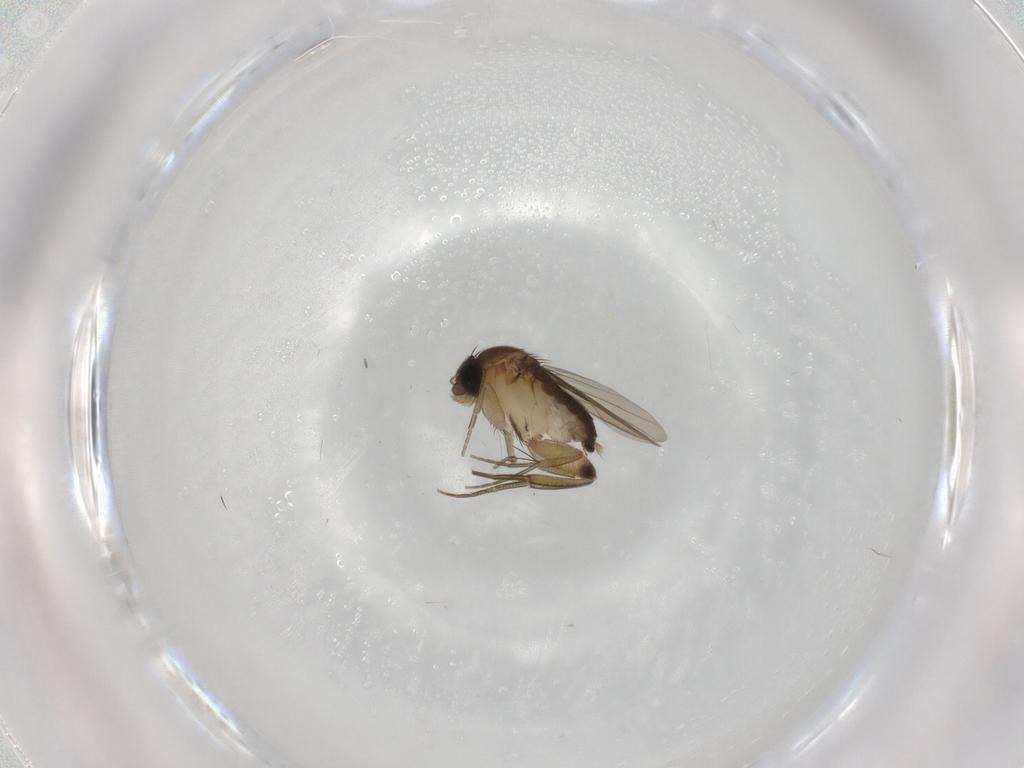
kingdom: Animalia
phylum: Arthropoda
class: Insecta
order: Diptera
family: Phoridae
